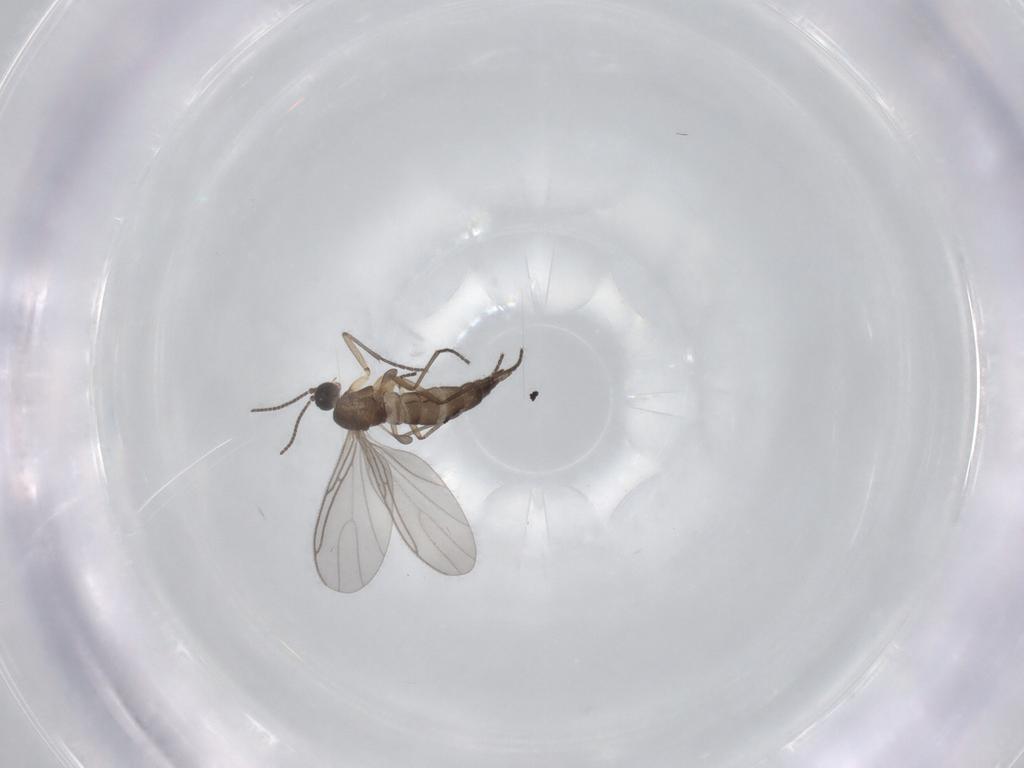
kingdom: Animalia
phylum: Arthropoda
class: Insecta
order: Diptera
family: Sciaridae
